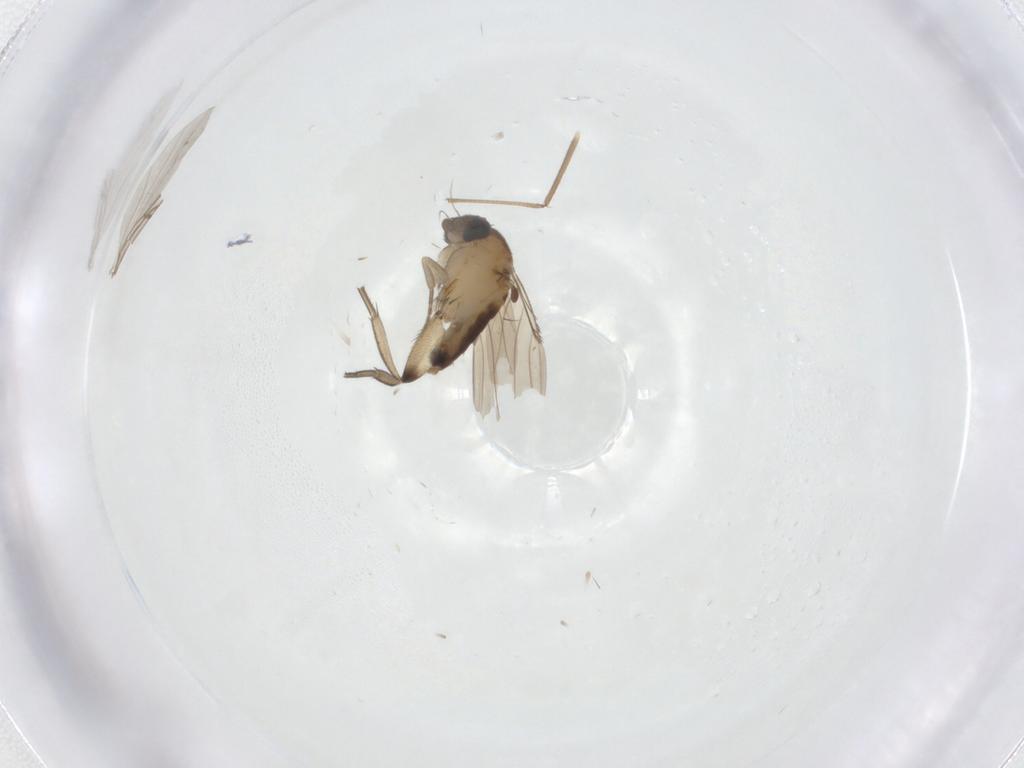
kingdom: Animalia
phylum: Arthropoda
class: Insecta
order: Diptera
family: Phoridae
